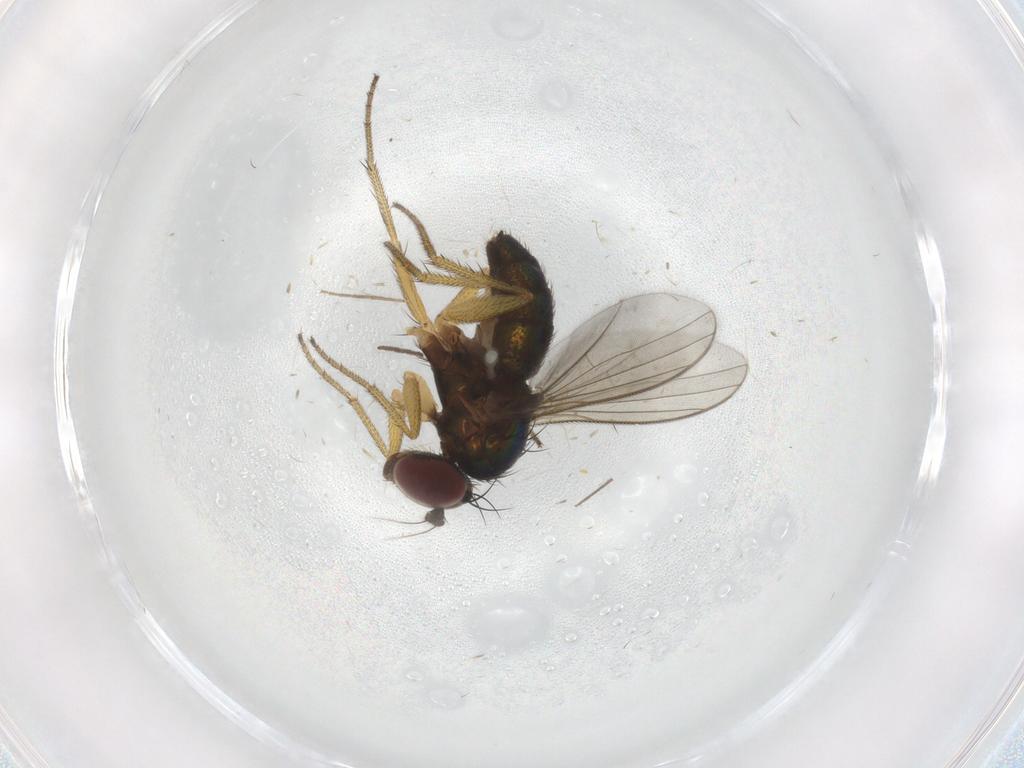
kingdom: Animalia
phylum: Arthropoda
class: Insecta
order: Diptera
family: Chironomidae
